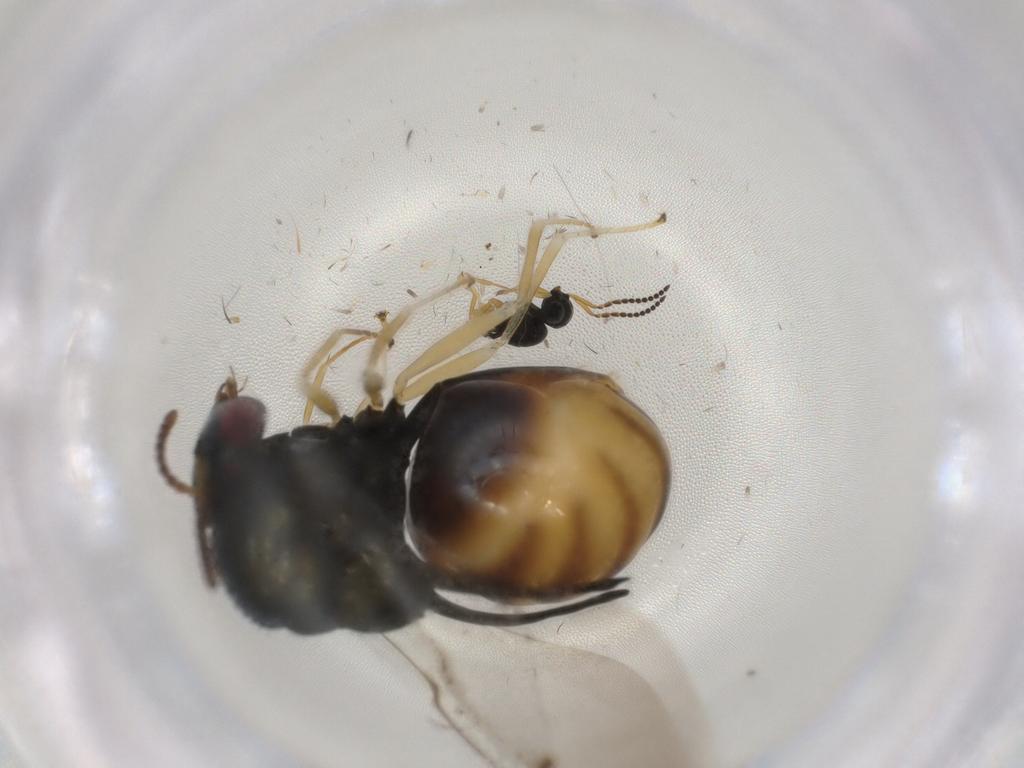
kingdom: Animalia
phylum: Arthropoda
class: Insecta
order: Hymenoptera
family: Scelionidae
